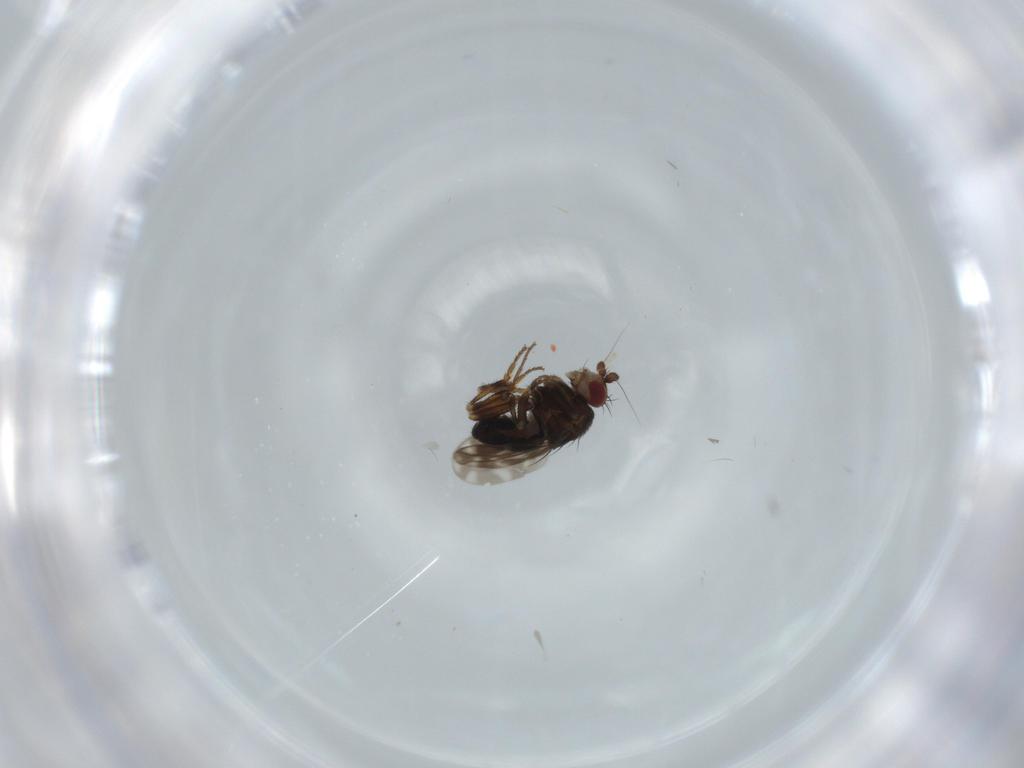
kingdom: Animalia
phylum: Arthropoda
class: Insecta
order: Diptera
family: Sphaeroceridae
